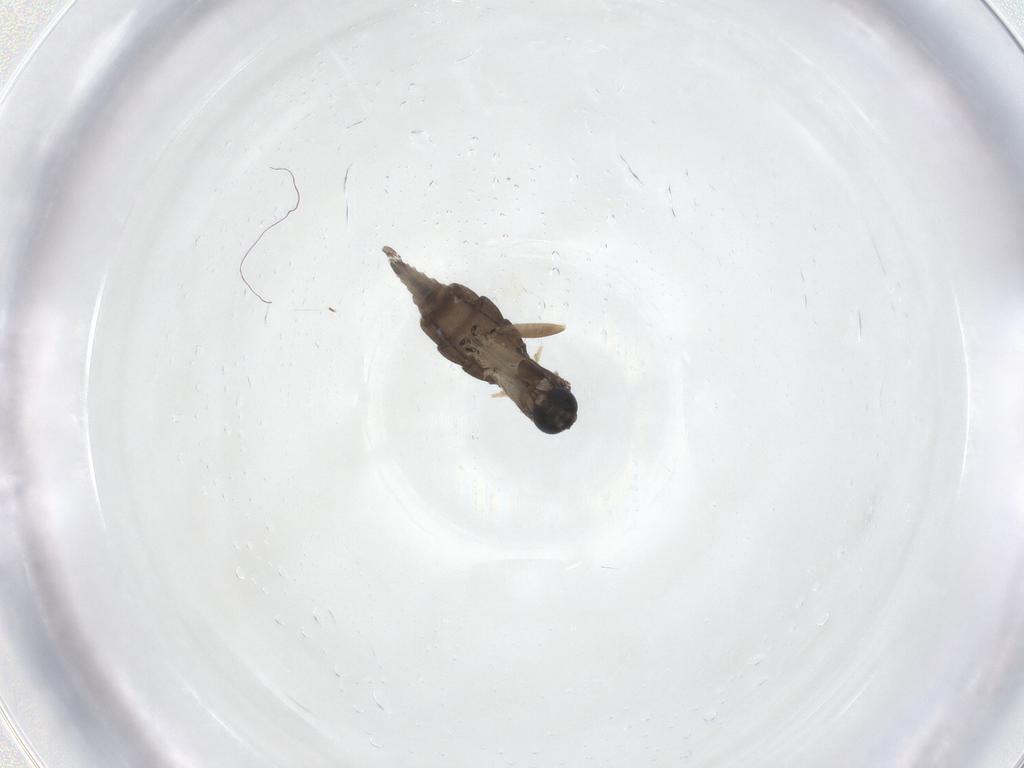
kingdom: Animalia
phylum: Arthropoda
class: Insecta
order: Diptera
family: Sciaridae
